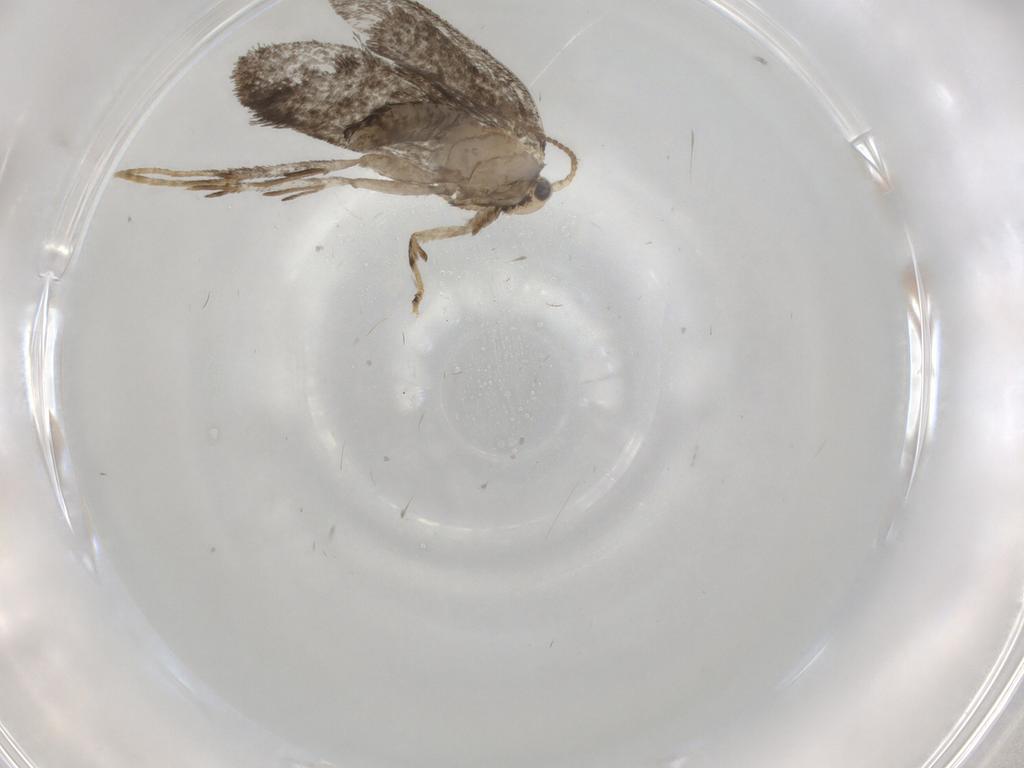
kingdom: Animalia
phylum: Arthropoda
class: Insecta
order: Lepidoptera
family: Psychidae
